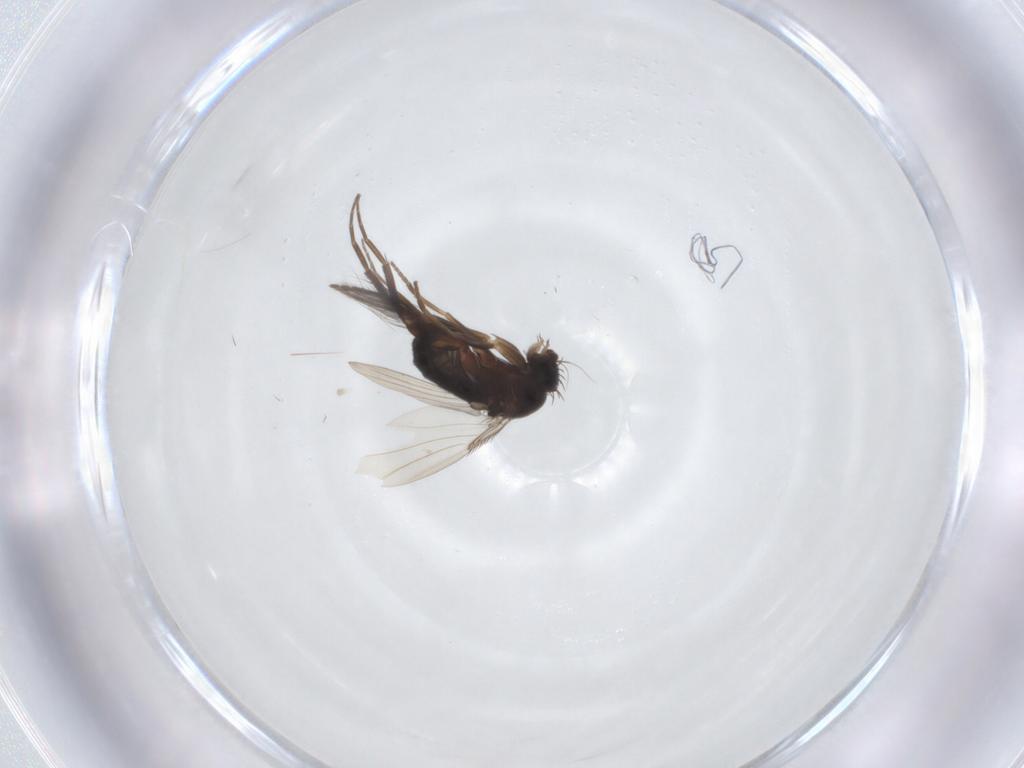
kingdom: Animalia
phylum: Arthropoda
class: Insecta
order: Diptera
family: Ceratopogonidae
